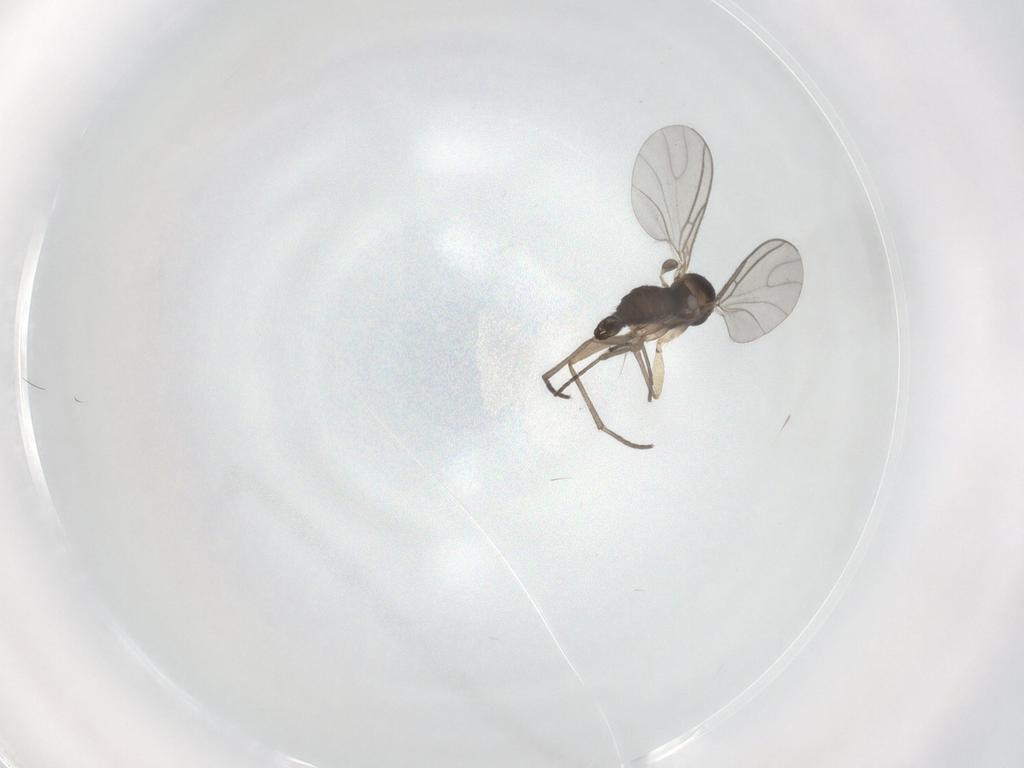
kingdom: Animalia
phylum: Arthropoda
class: Insecta
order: Diptera
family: Sciaridae
